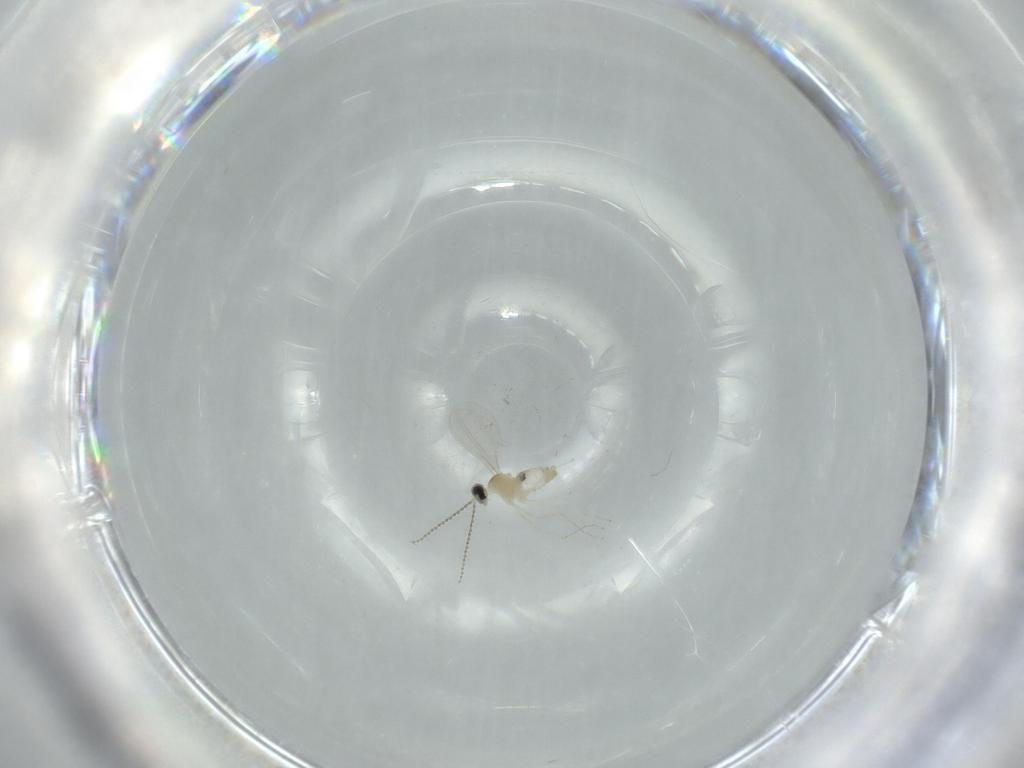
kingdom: Animalia
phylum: Arthropoda
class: Insecta
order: Diptera
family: Cecidomyiidae
